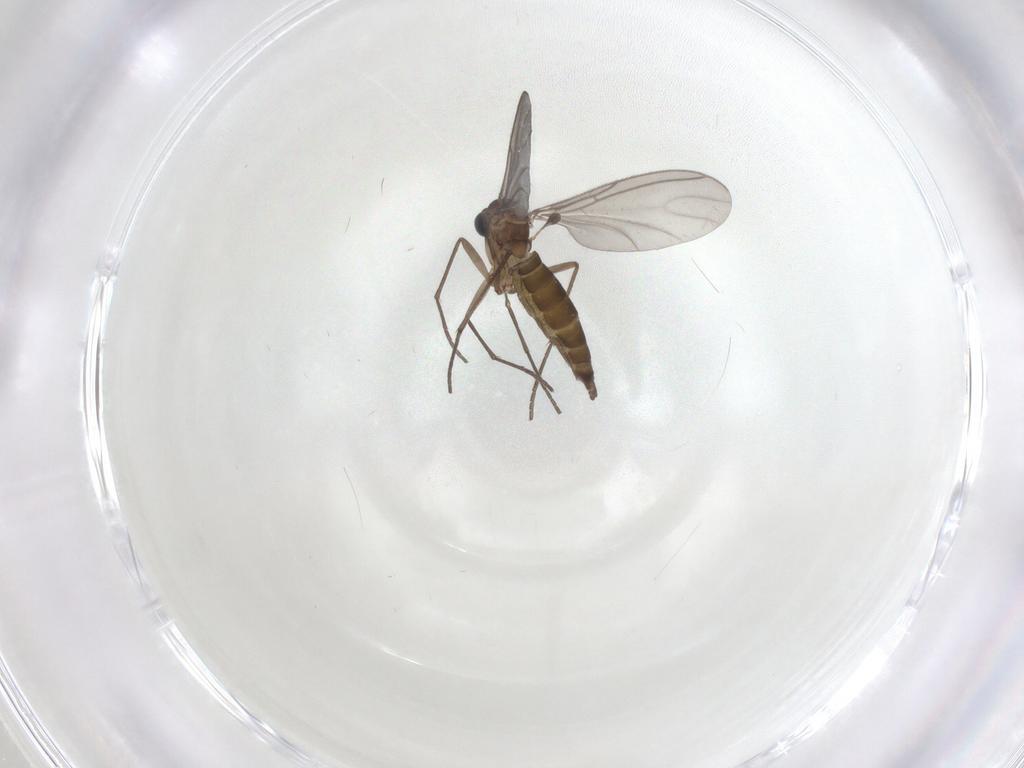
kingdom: Animalia
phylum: Arthropoda
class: Insecta
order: Diptera
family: Sciaridae
